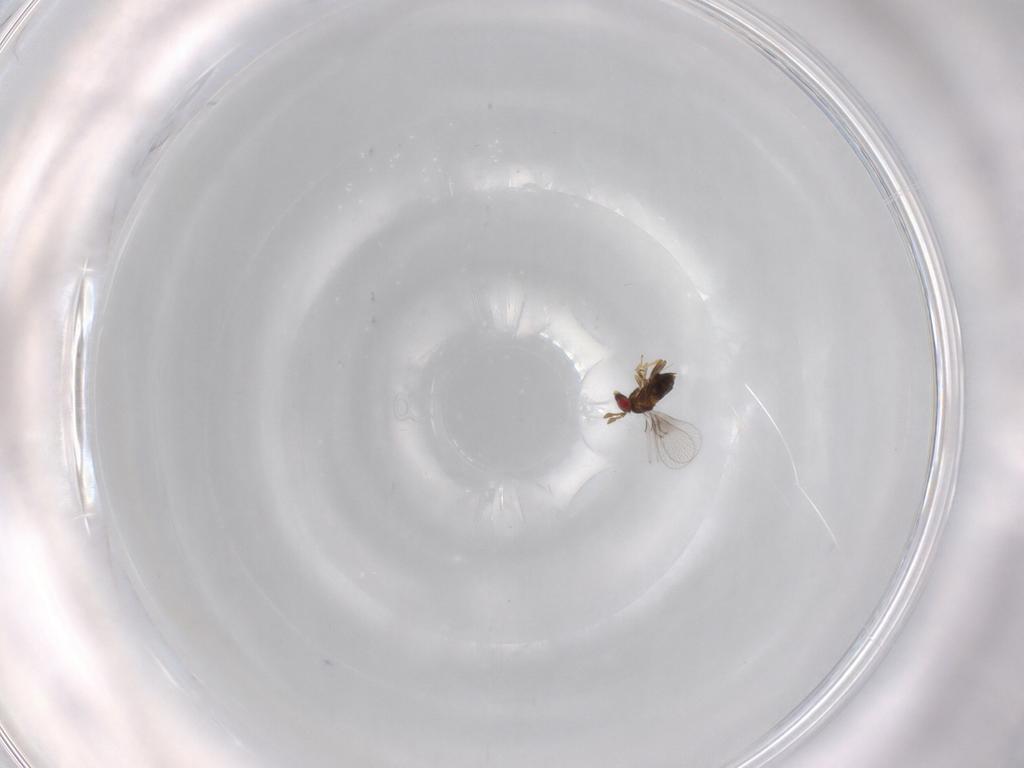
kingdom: Animalia
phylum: Arthropoda
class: Insecta
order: Hymenoptera
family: Trichogrammatidae
